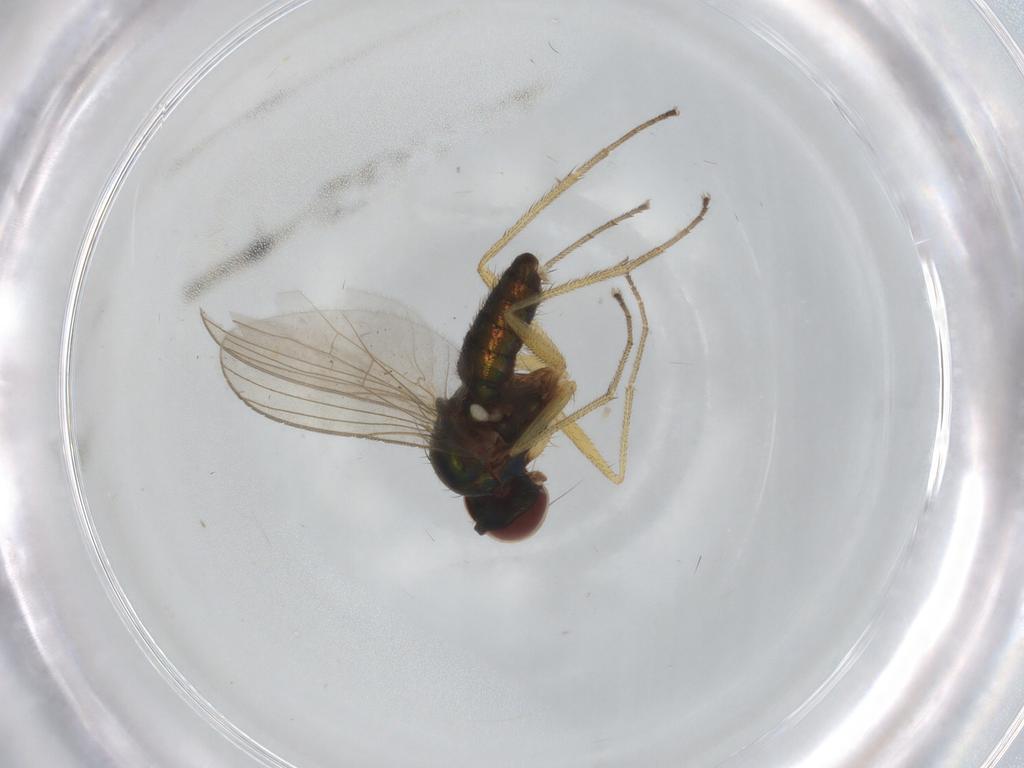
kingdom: Animalia
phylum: Arthropoda
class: Insecta
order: Diptera
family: Dolichopodidae
